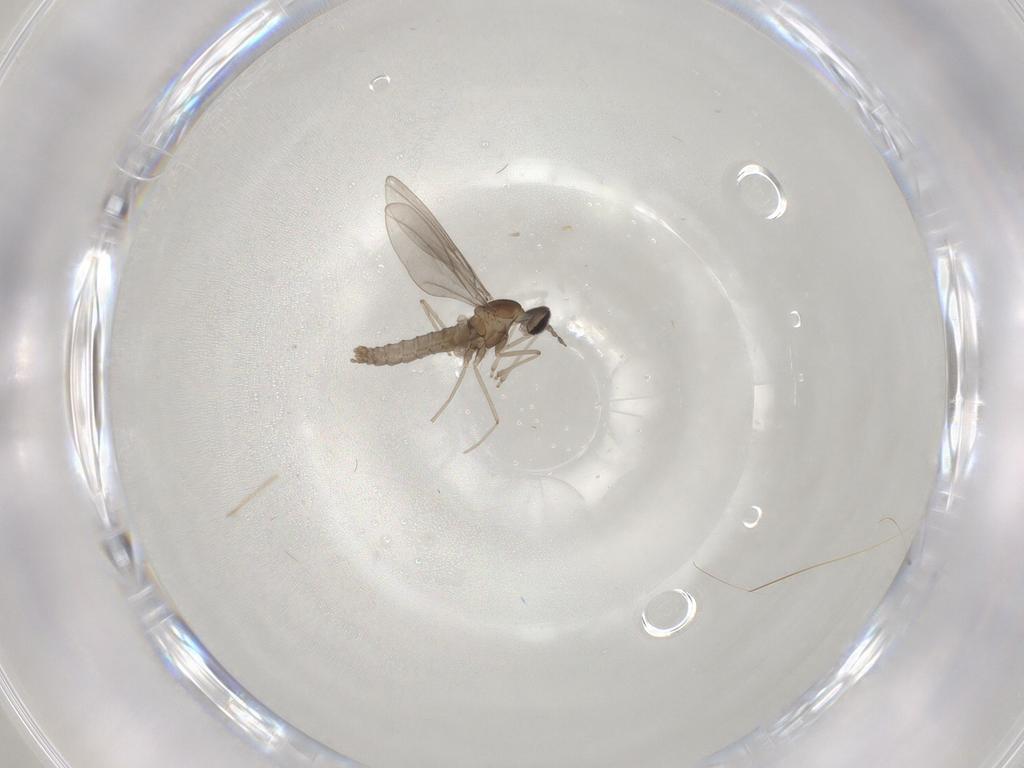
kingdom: Animalia
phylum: Arthropoda
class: Insecta
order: Diptera
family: Cecidomyiidae
